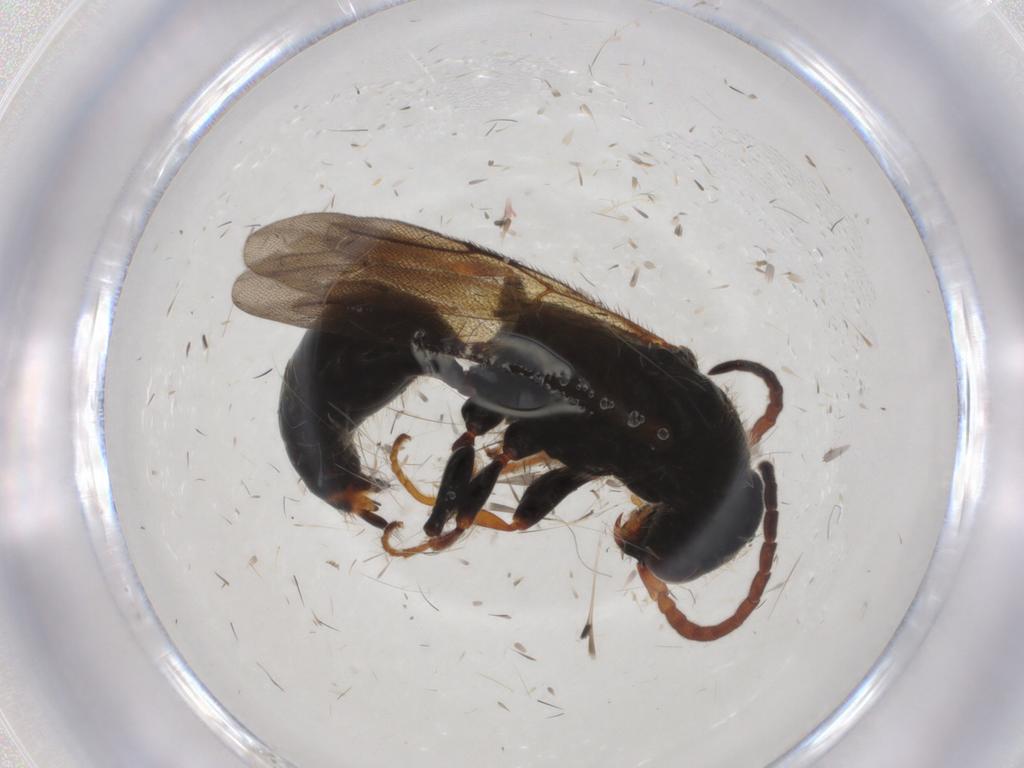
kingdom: Animalia
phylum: Arthropoda
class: Insecta
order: Hymenoptera
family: Bethylidae
